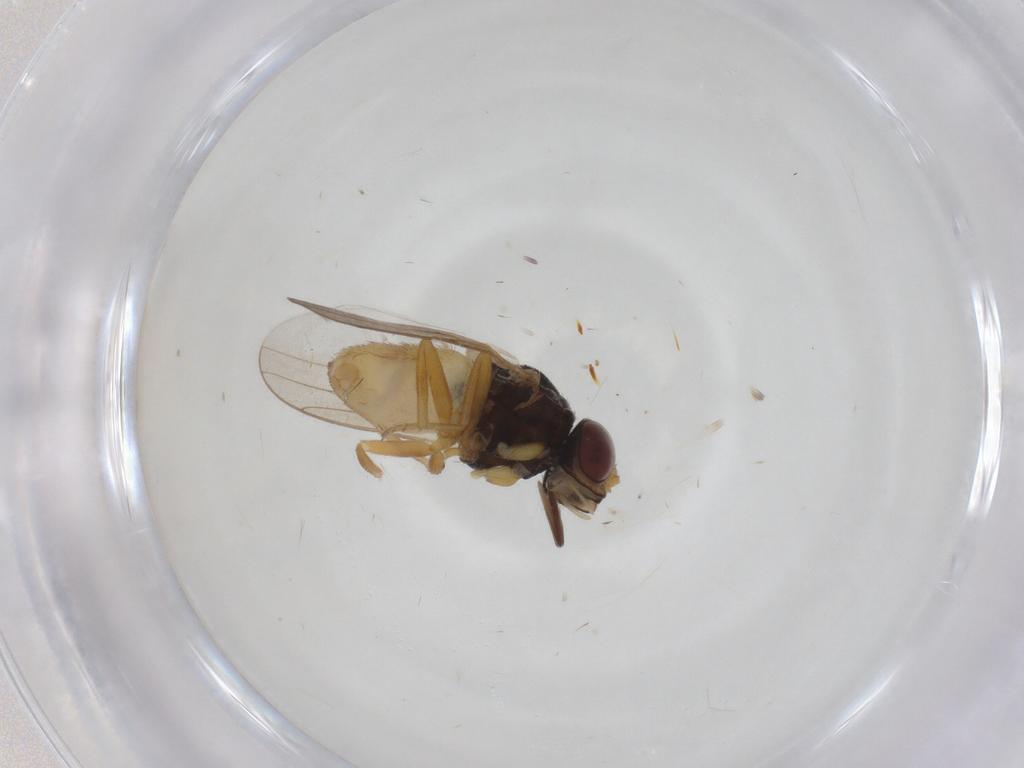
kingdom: Animalia
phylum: Arthropoda
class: Insecta
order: Diptera
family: Chloropidae
